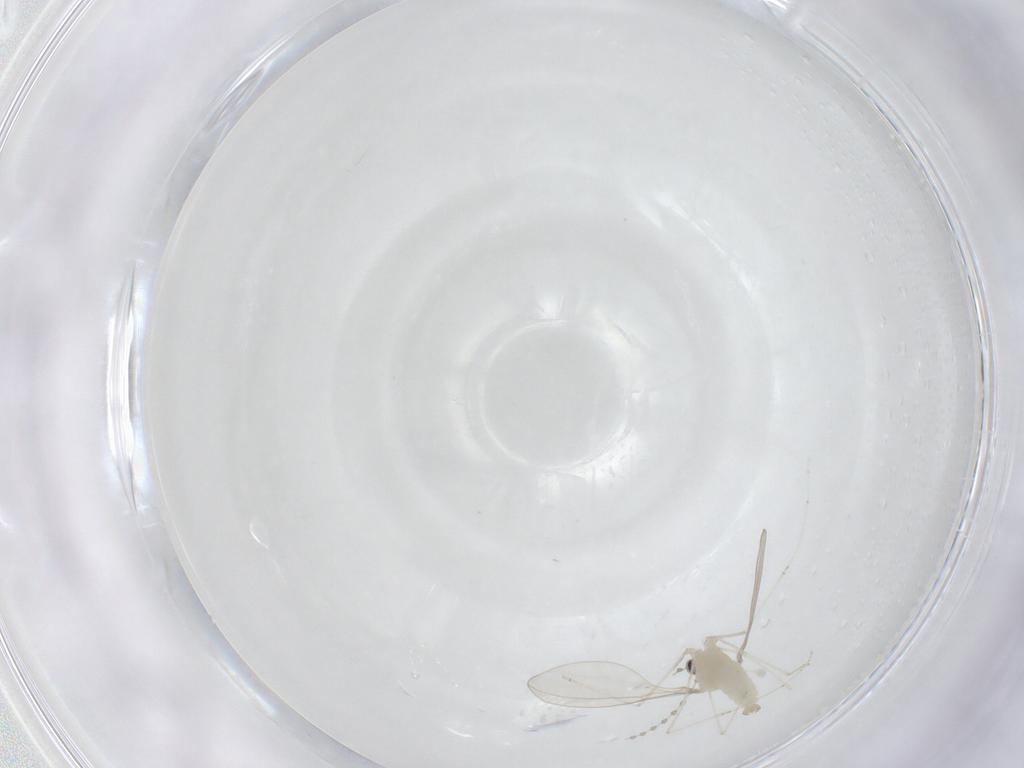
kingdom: Animalia
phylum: Arthropoda
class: Insecta
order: Diptera
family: Cecidomyiidae
